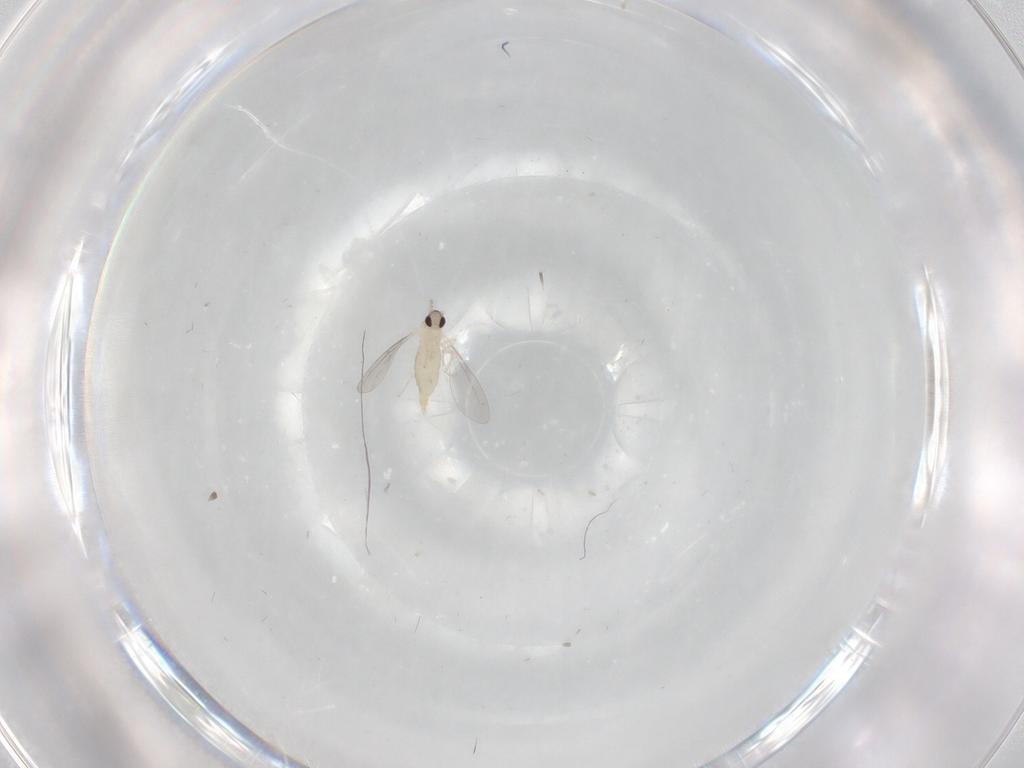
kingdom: Animalia
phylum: Arthropoda
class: Insecta
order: Diptera
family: Cecidomyiidae
